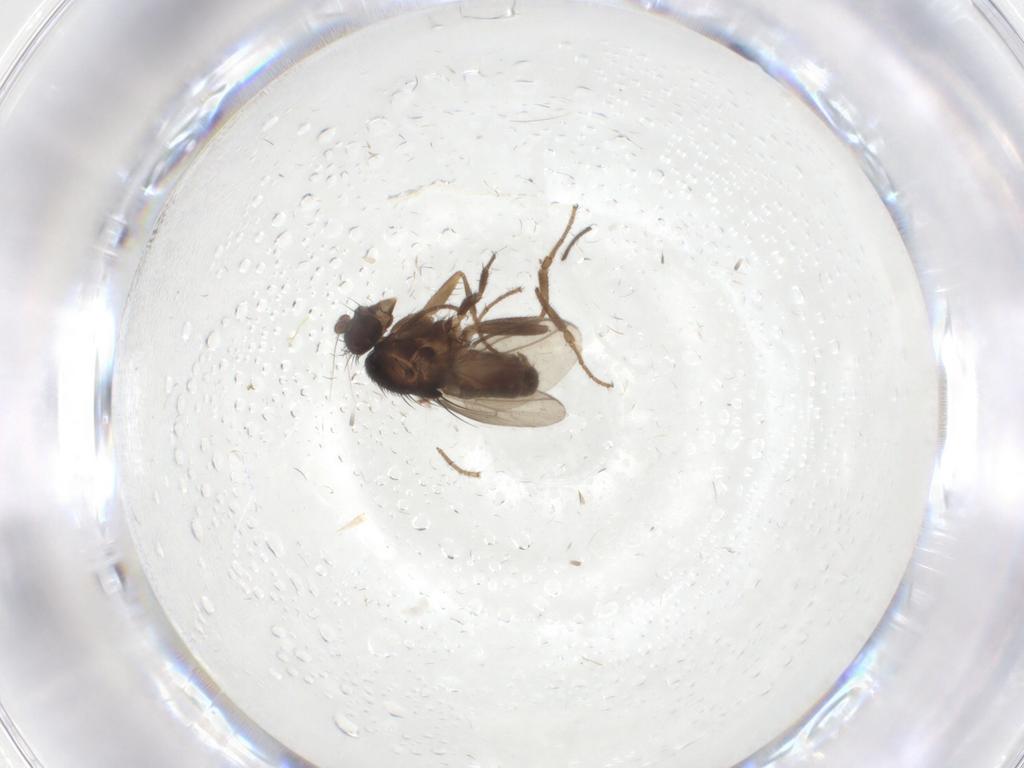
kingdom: Animalia
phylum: Arthropoda
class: Insecta
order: Diptera
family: Sphaeroceridae
